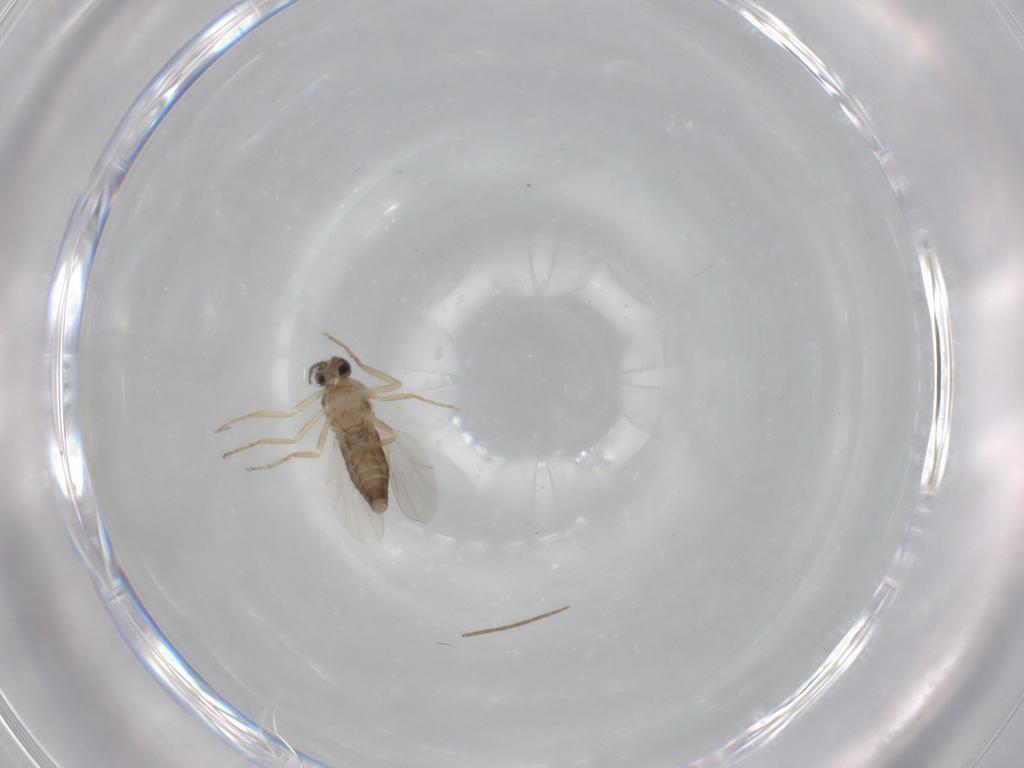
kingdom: Animalia
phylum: Arthropoda
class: Insecta
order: Diptera
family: Ceratopogonidae
